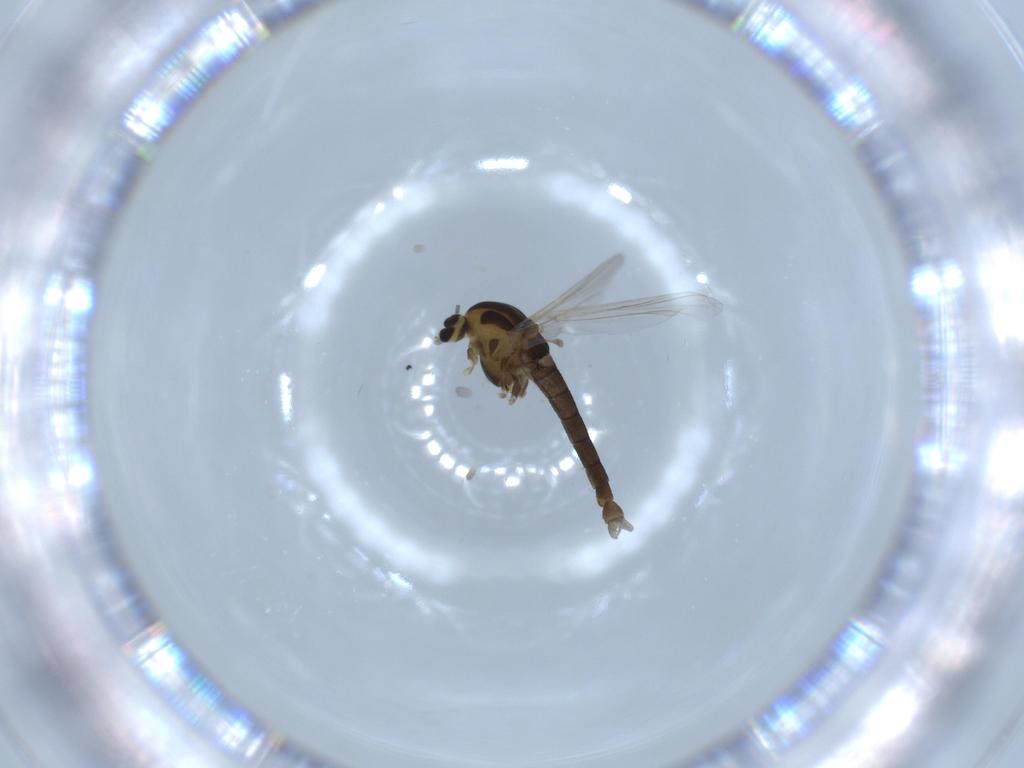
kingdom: Animalia
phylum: Arthropoda
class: Insecta
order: Diptera
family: Chironomidae
